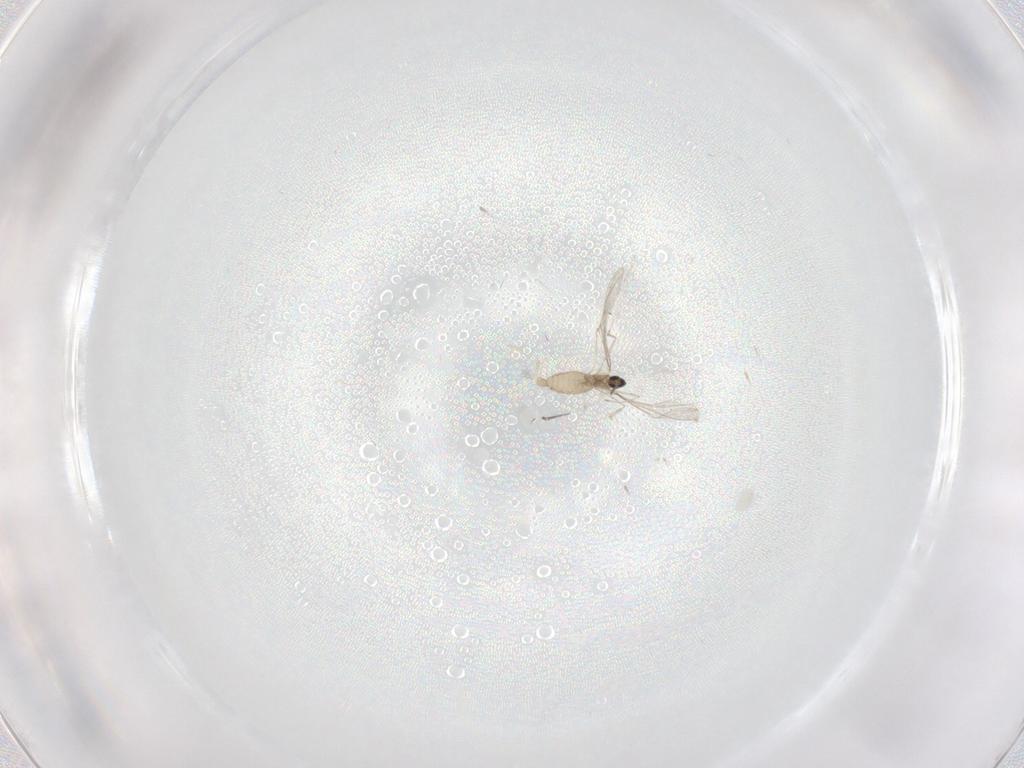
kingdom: Animalia
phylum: Arthropoda
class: Insecta
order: Diptera
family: Phoridae
